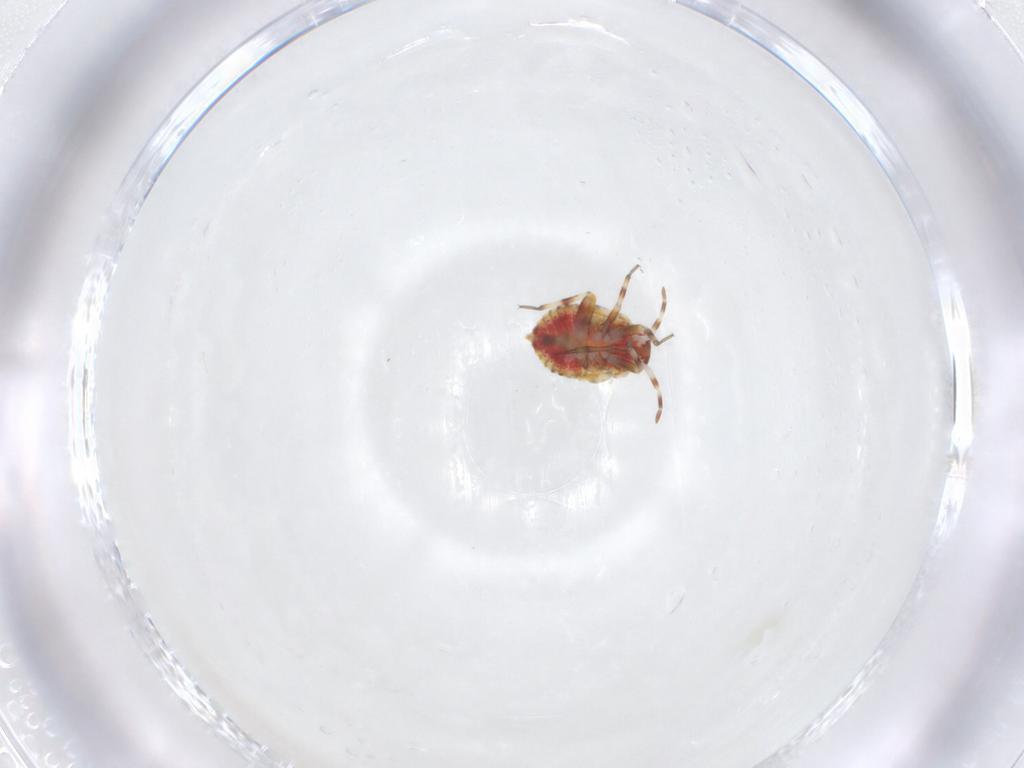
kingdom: Animalia
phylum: Arthropoda
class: Insecta
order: Hemiptera
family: Miridae
